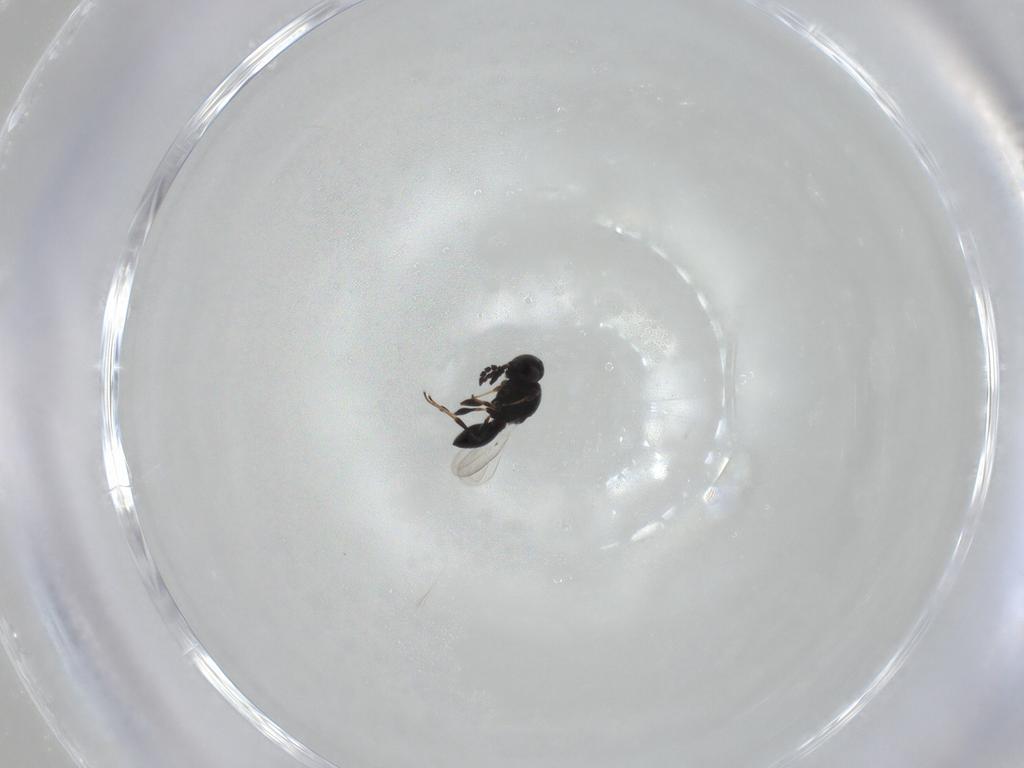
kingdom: Animalia
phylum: Arthropoda
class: Insecta
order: Hymenoptera
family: Platygastridae
